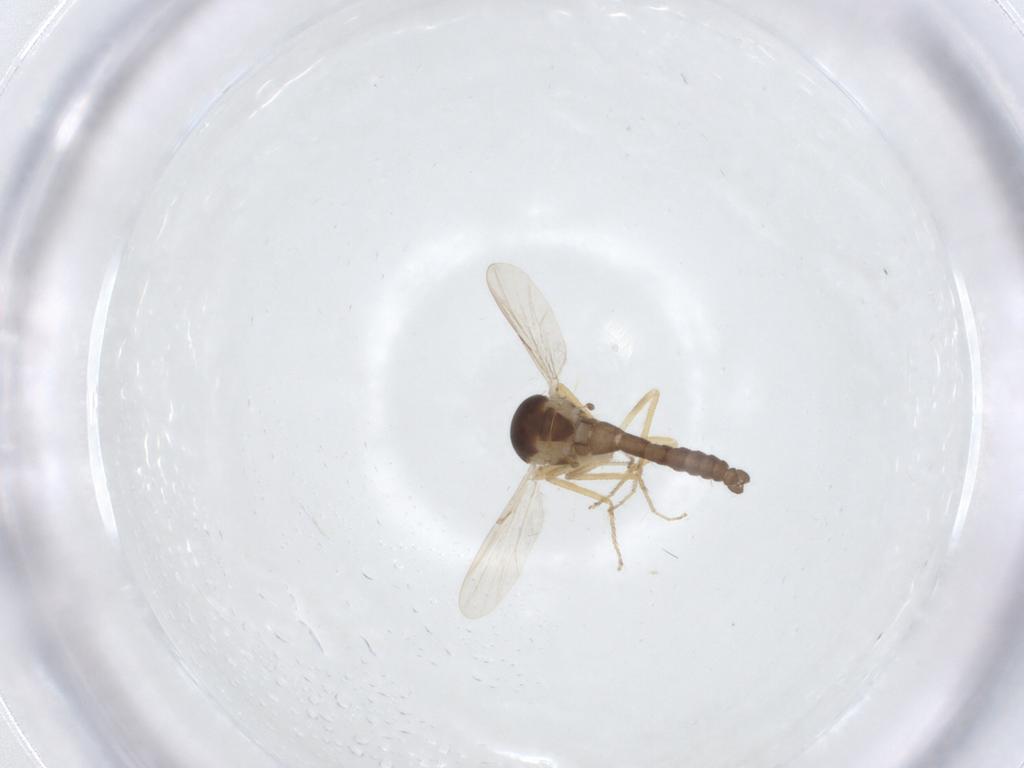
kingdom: Animalia
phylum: Arthropoda
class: Insecta
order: Diptera
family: Ceratopogonidae
